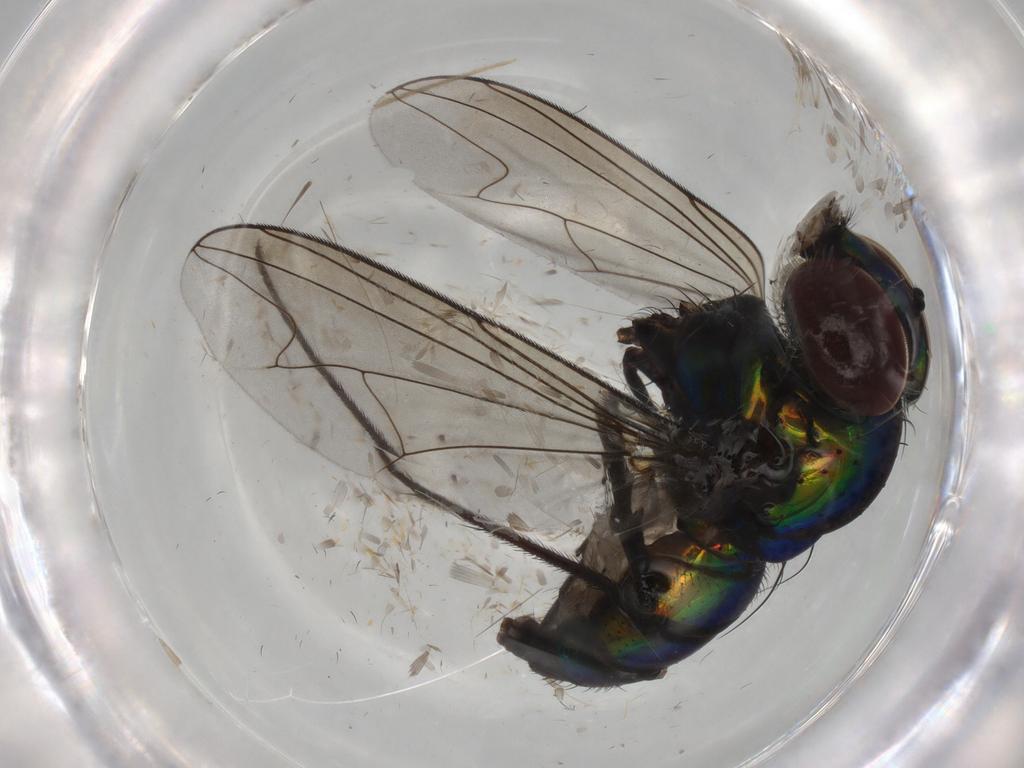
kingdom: Animalia
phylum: Arthropoda
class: Insecta
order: Diptera
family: Dolichopodidae
